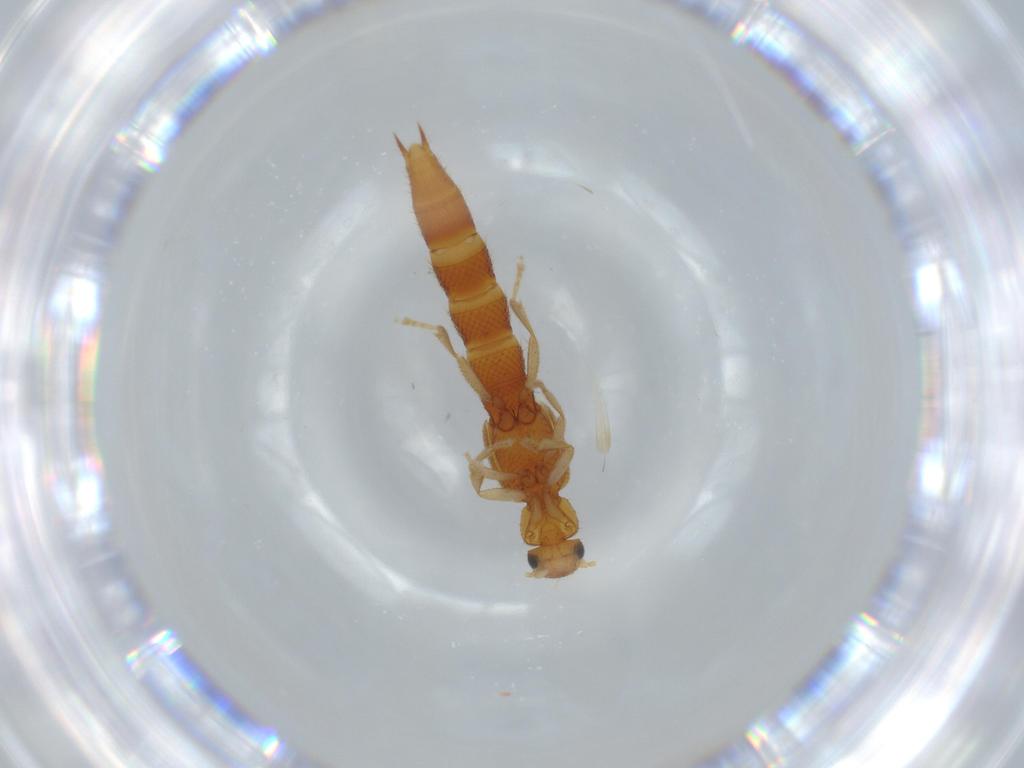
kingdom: Animalia
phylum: Arthropoda
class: Insecta
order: Coleoptera
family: Staphylinidae
